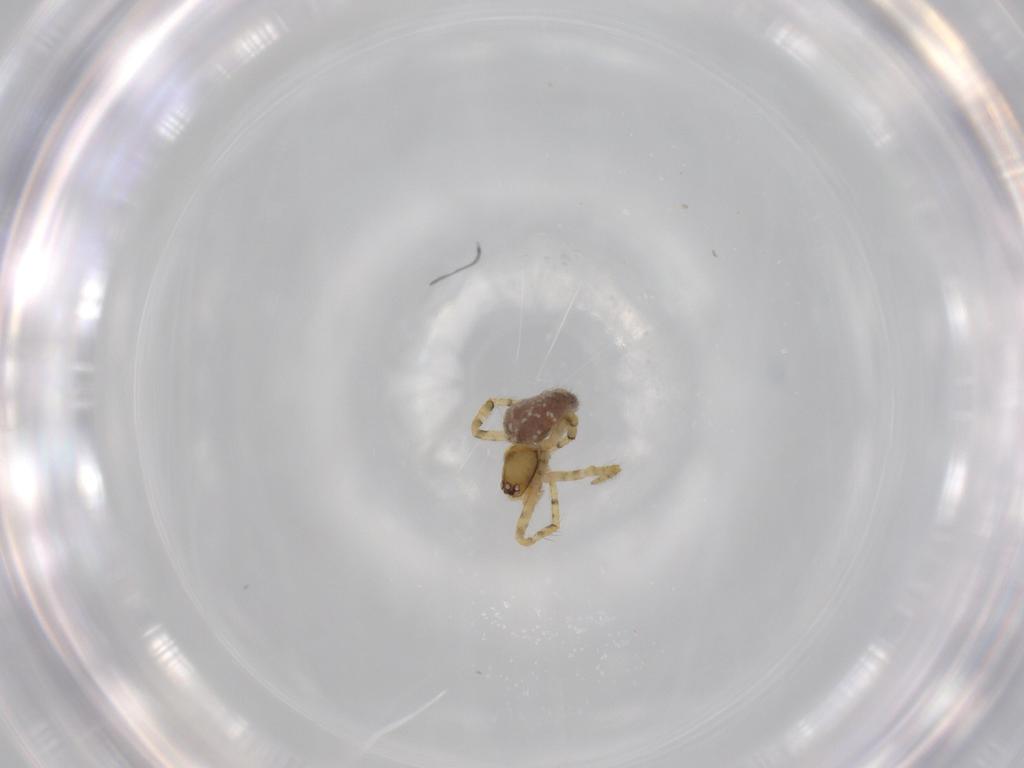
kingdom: Animalia
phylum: Arthropoda
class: Arachnida
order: Araneae
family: Theridiidae
